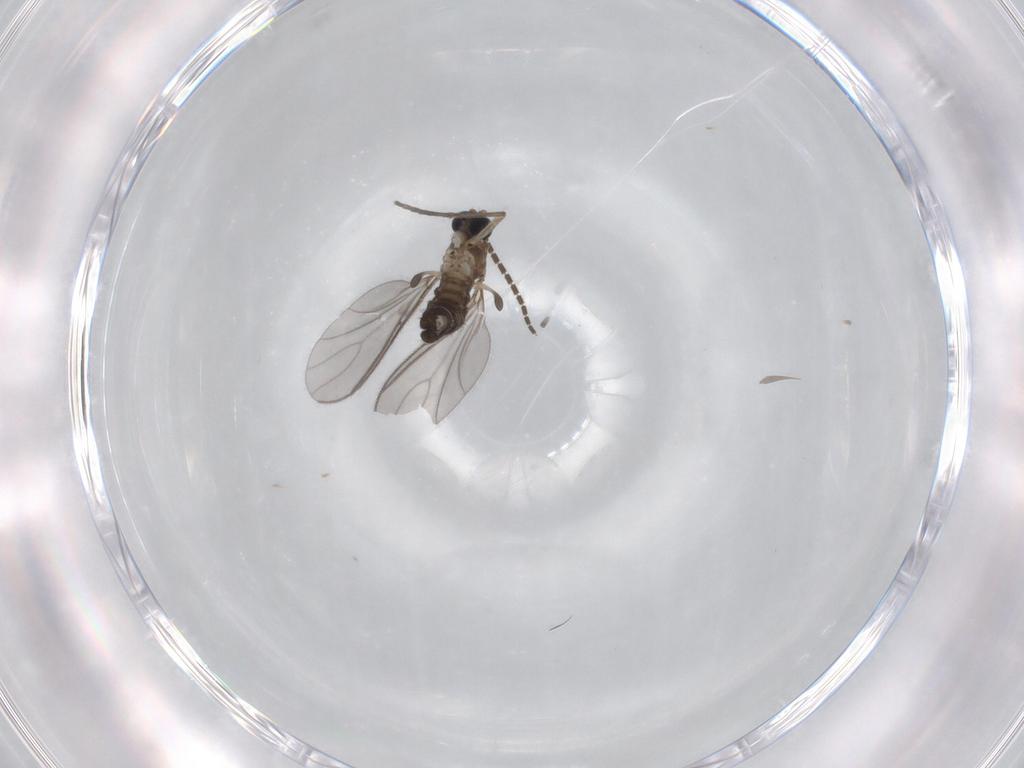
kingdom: Animalia
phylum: Arthropoda
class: Insecta
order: Diptera
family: Sciaridae
